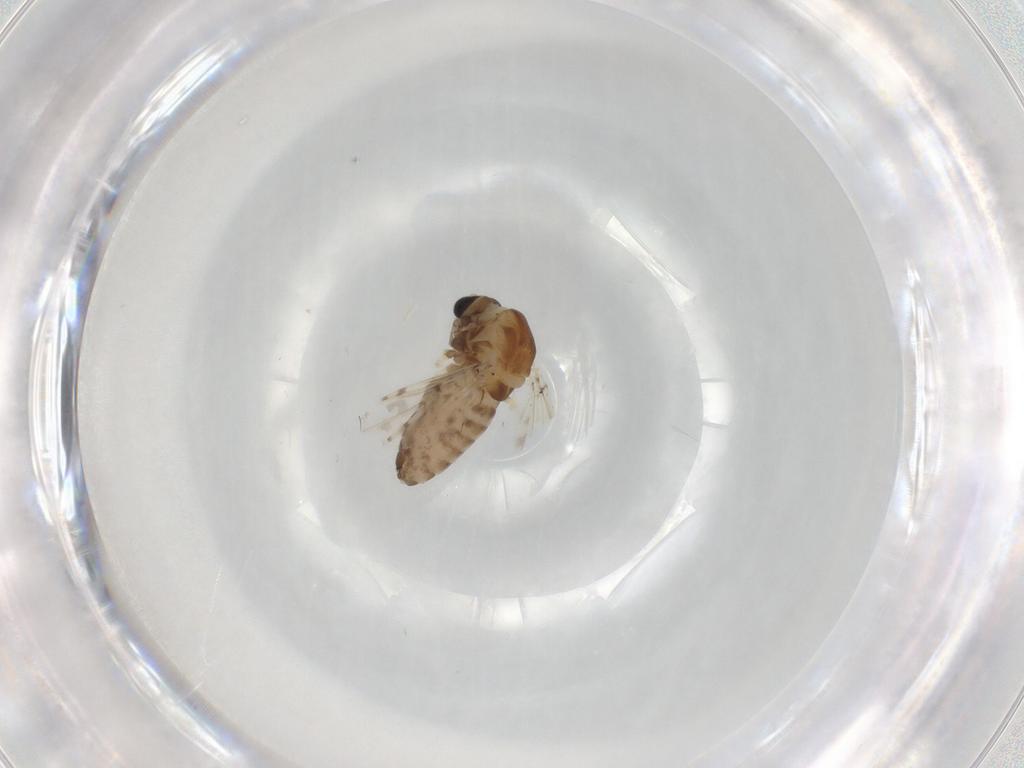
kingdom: Animalia
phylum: Arthropoda
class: Insecta
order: Diptera
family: Chironomidae
